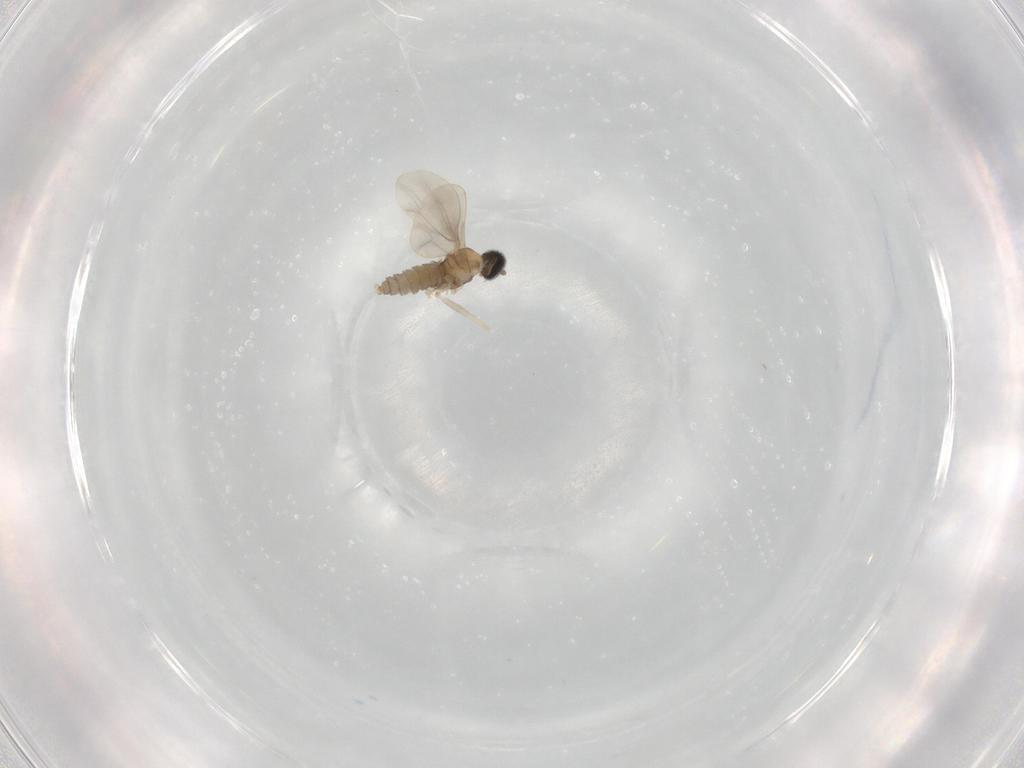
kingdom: Animalia
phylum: Arthropoda
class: Insecta
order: Diptera
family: Cecidomyiidae
